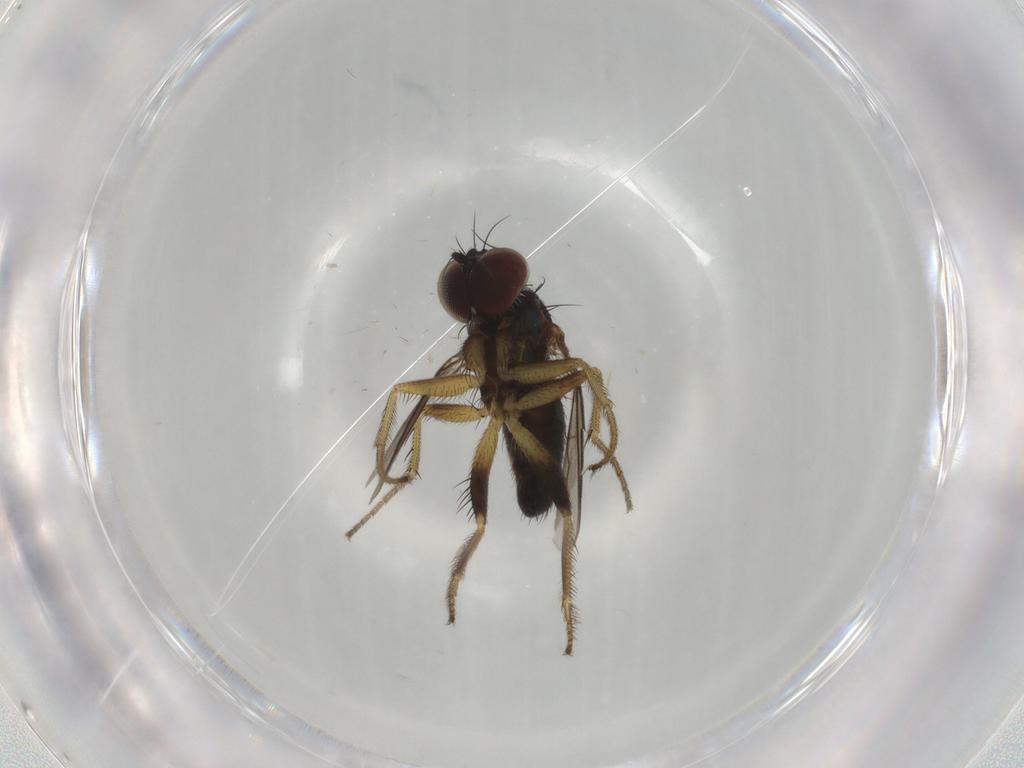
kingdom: Animalia
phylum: Arthropoda
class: Insecta
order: Diptera
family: Dolichopodidae
